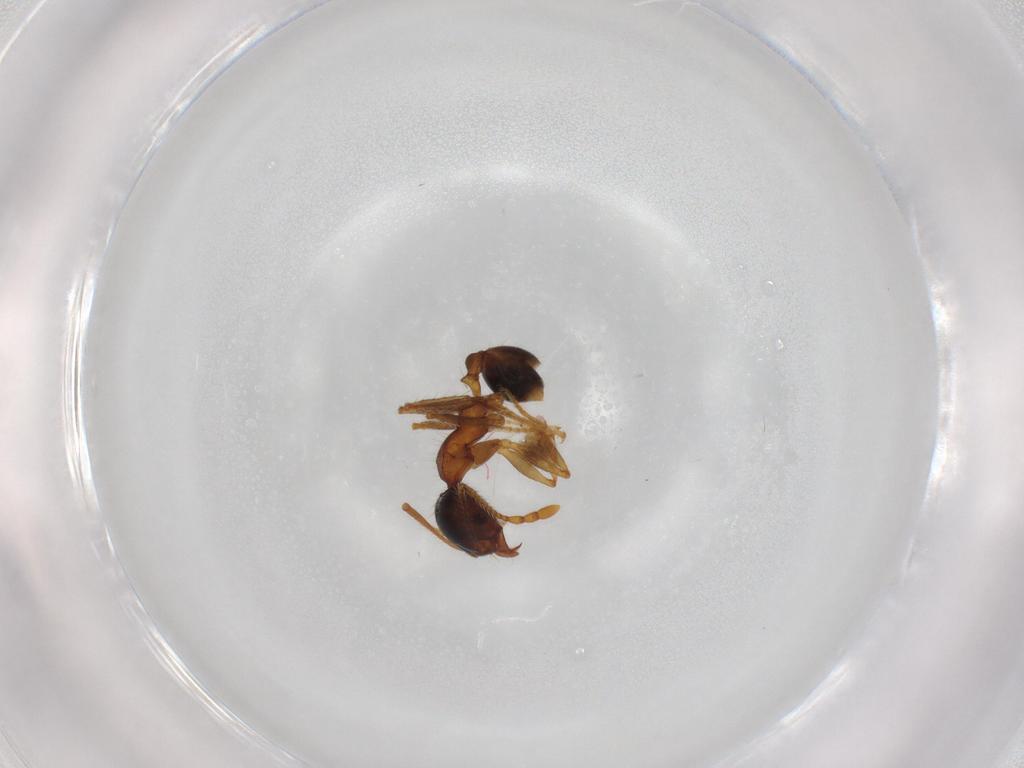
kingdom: Animalia
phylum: Arthropoda
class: Insecta
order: Hymenoptera
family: Formicidae
